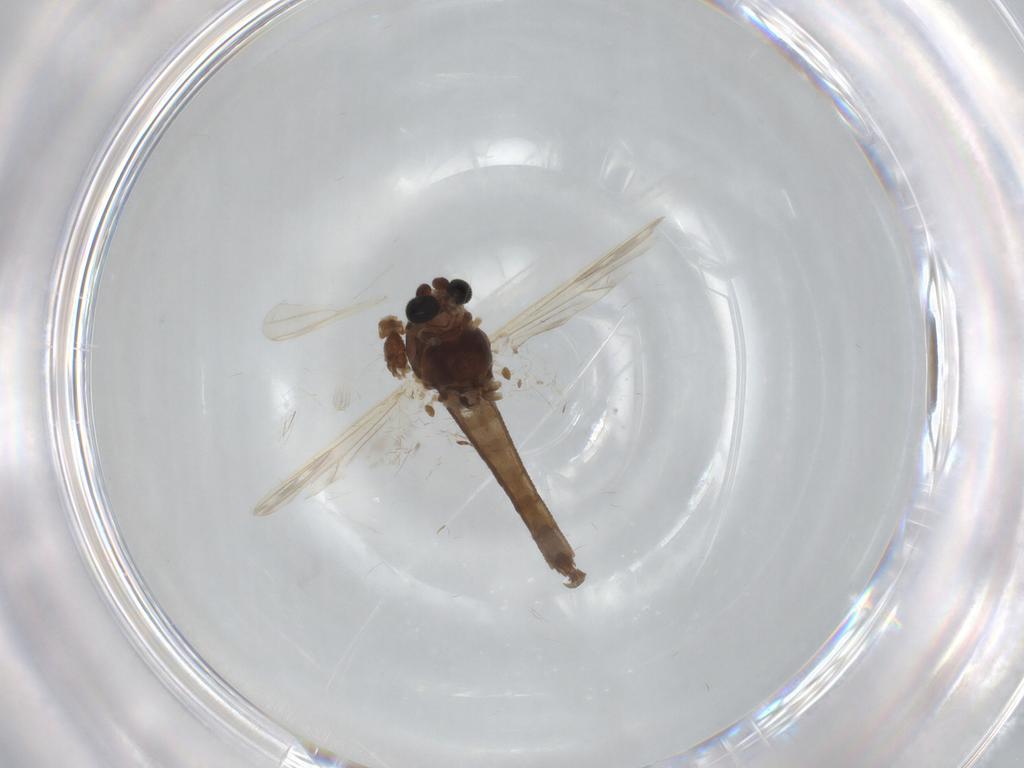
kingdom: Animalia
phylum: Arthropoda
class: Insecta
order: Diptera
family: Chironomidae
